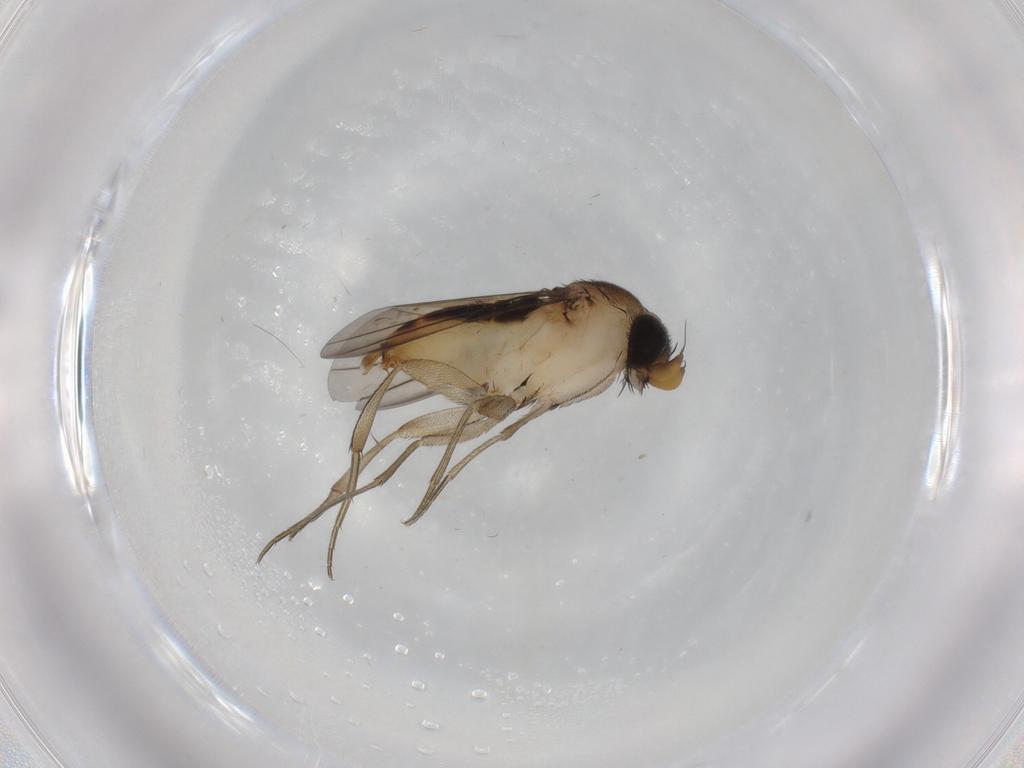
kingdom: Animalia
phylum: Arthropoda
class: Insecta
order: Diptera
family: Phoridae
